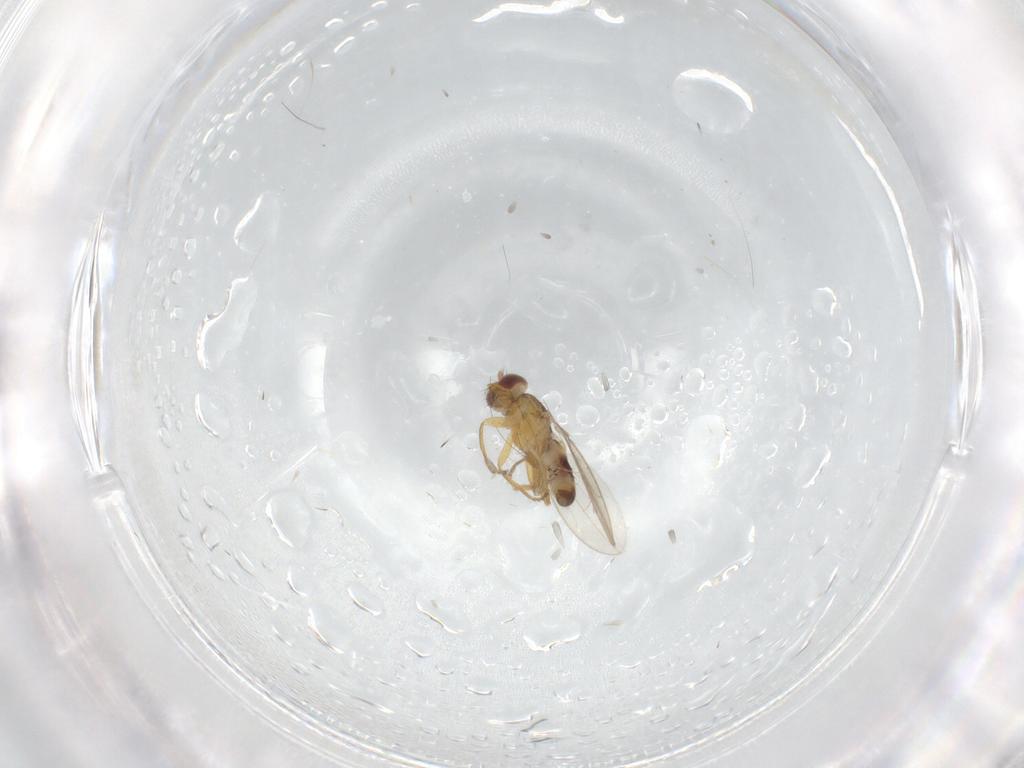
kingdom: Animalia
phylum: Arthropoda
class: Insecta
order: Diptera
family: Periscelididae
